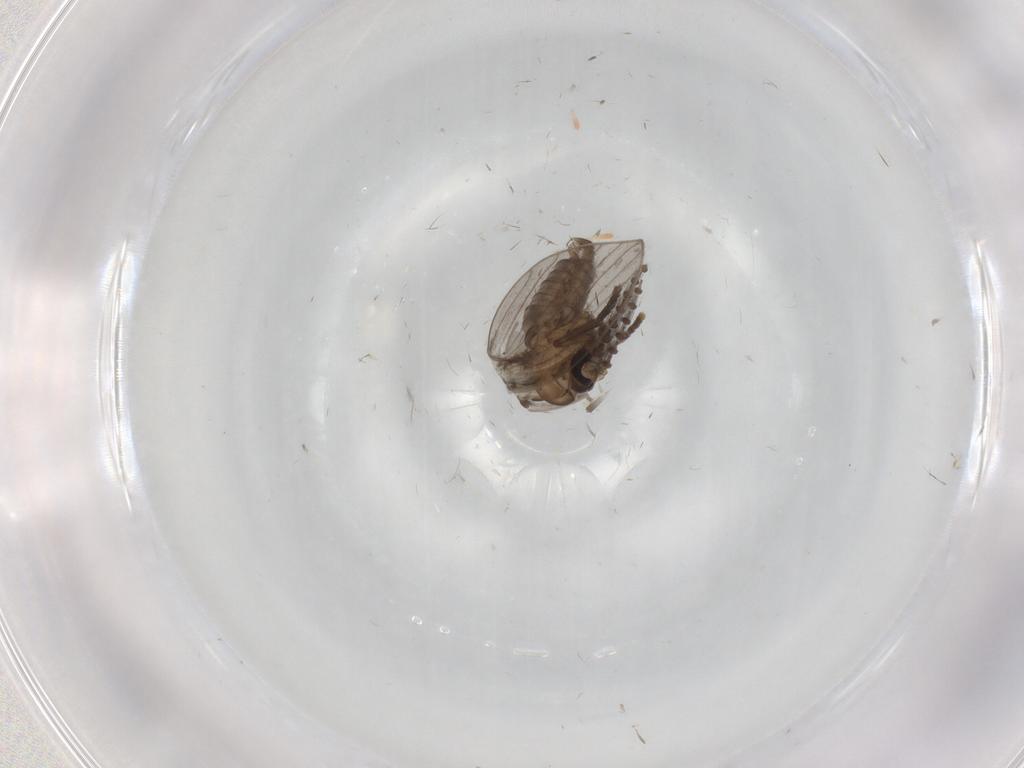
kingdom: Animalia
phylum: Arthropoda
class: Insecta
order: Diptera
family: Psychodidae
